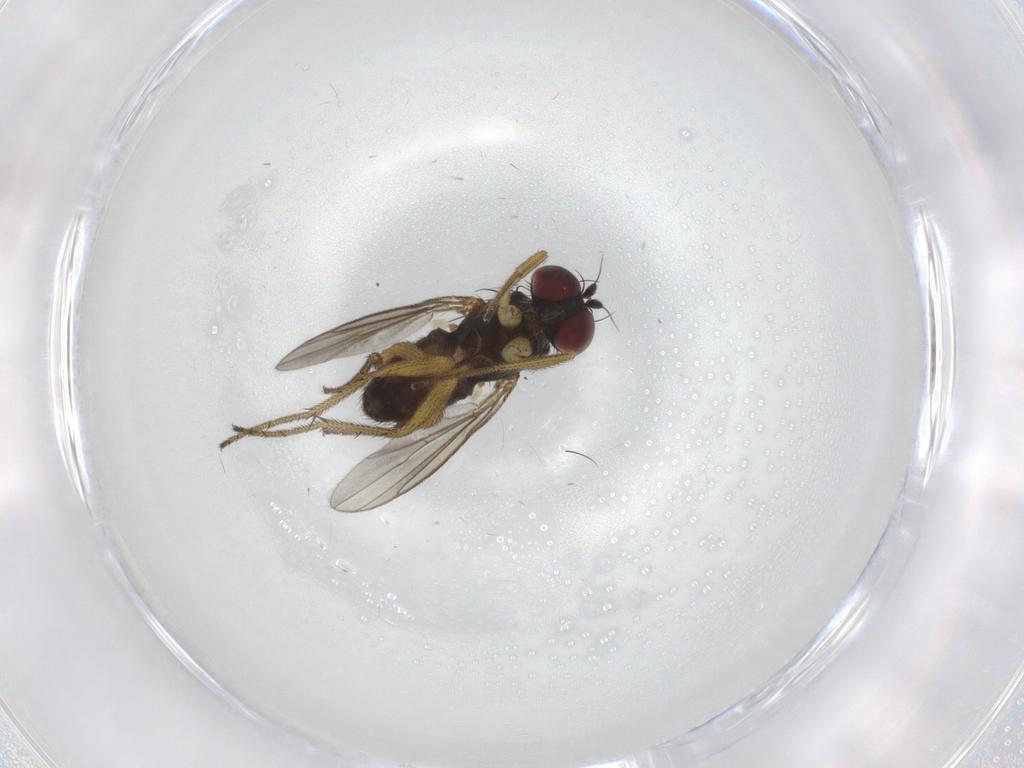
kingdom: Animalia
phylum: Arthropoda
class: Insecta
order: Diptera
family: Dolichopodidae
